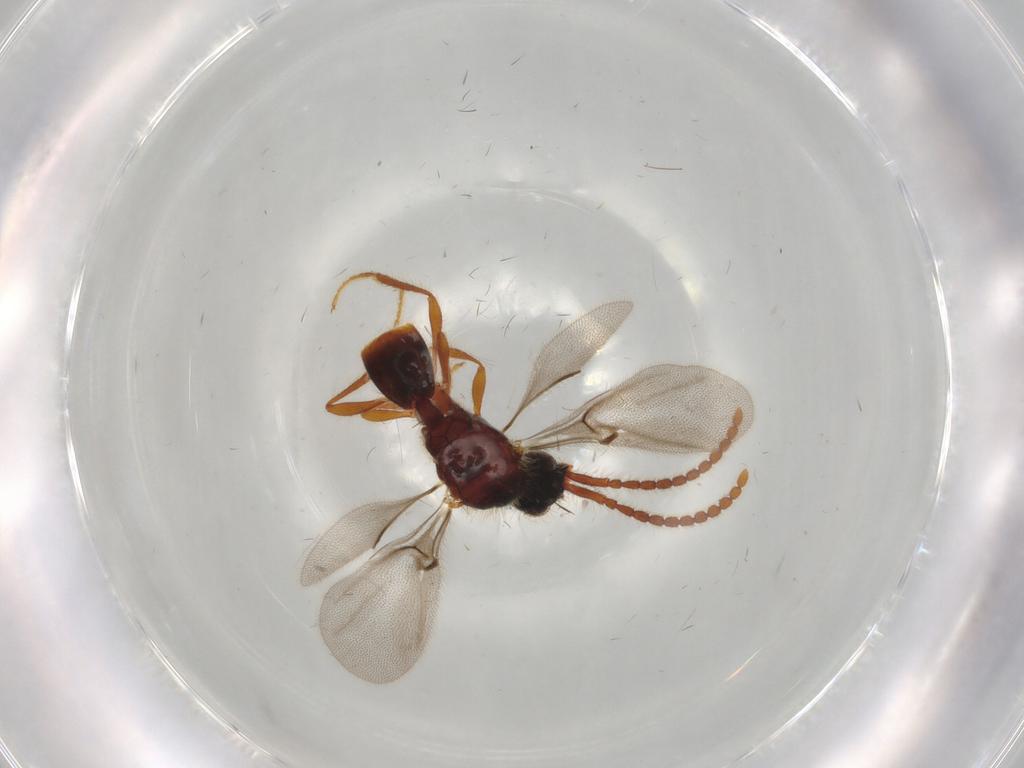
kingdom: Animalia
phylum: Arthropoda
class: Insecta
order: Hymenoptera
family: Diapriidae
